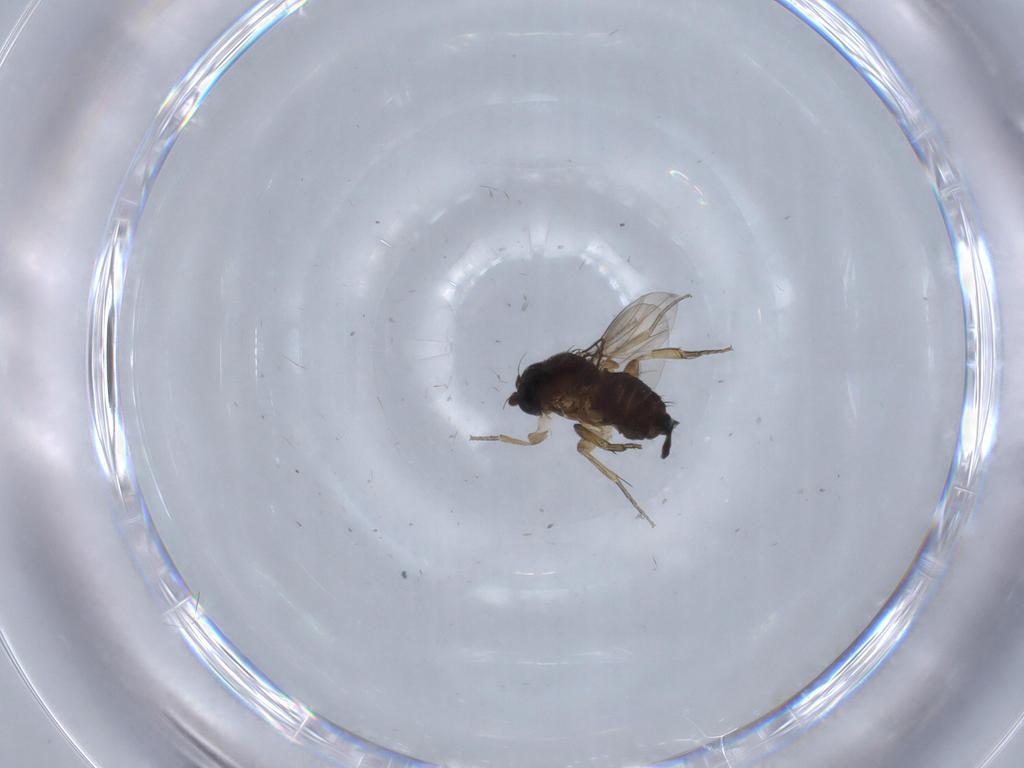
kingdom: Animalia
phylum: Arthropoda
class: Insecta
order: Diptera
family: Phoridae
